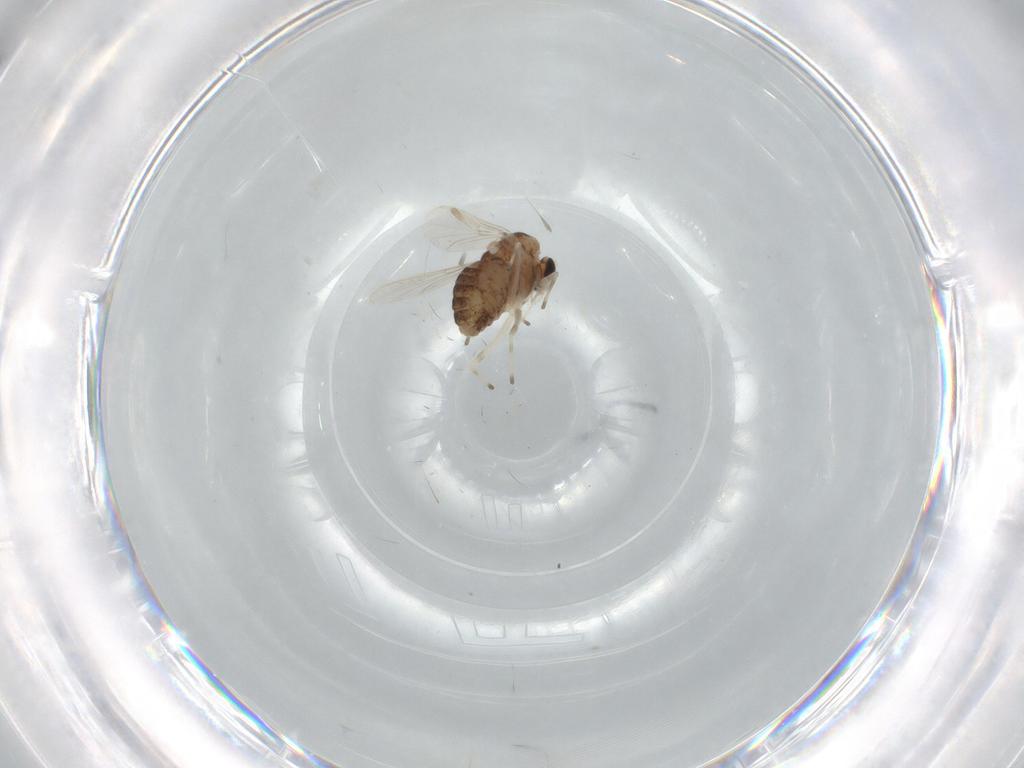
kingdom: Animalia
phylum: Arthropoda
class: Insecta
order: Diptera
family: Chironomidae
